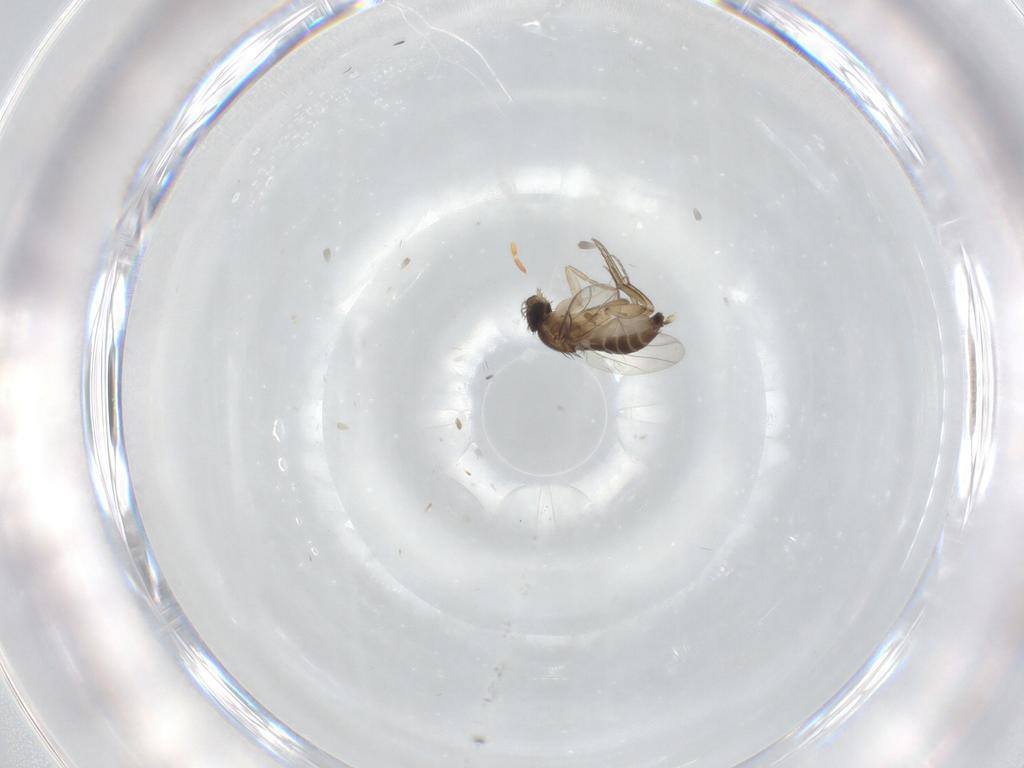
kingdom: Animalia
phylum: Arthropoda
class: Insecta
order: Diptera
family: Phoridae
